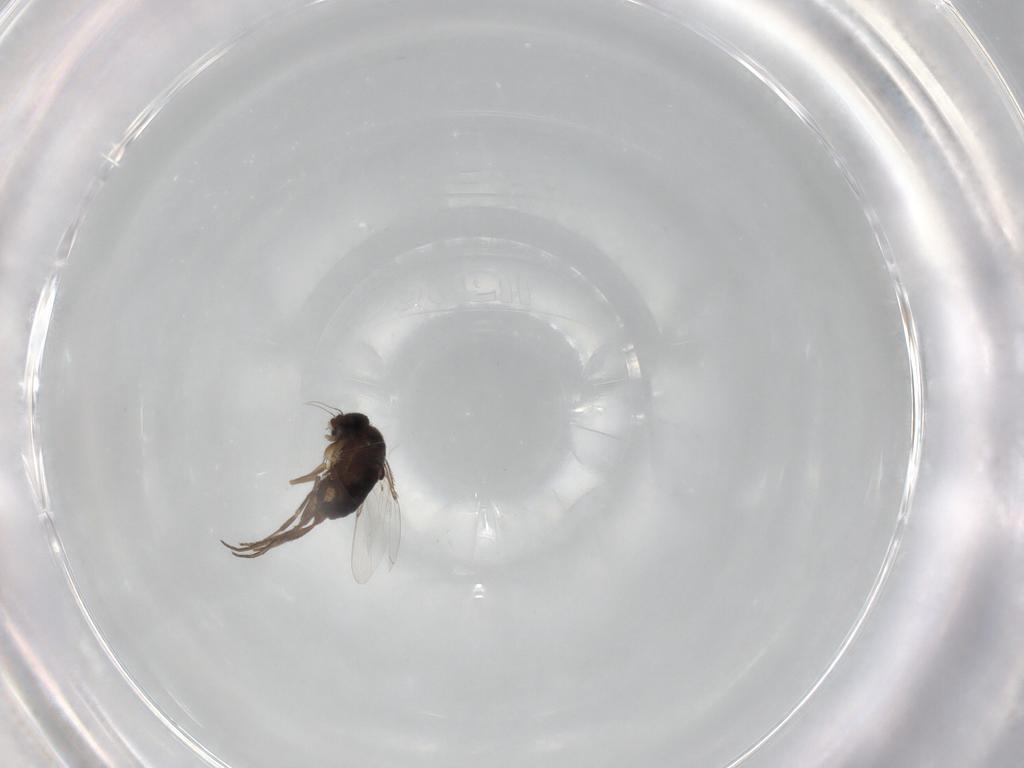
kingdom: Animalia
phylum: Arthropoda
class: Insecta
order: Diptera
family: Phoridae
